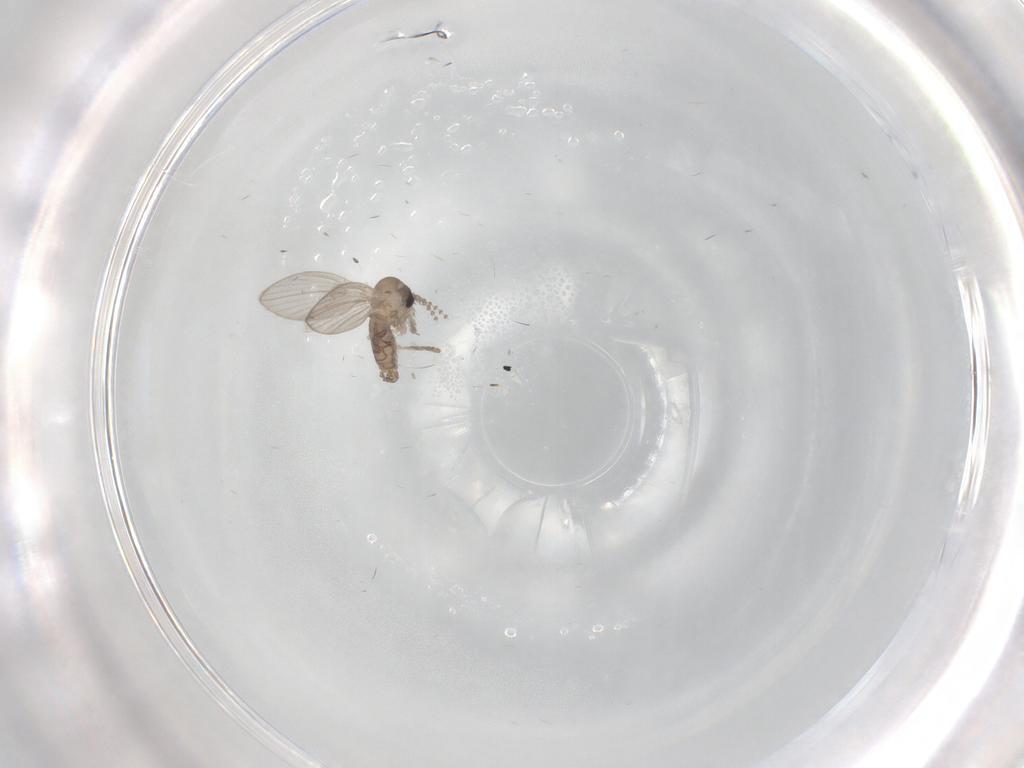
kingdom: Animalia
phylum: Arthropoda
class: Insecta
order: Diptera
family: Psychodidae
